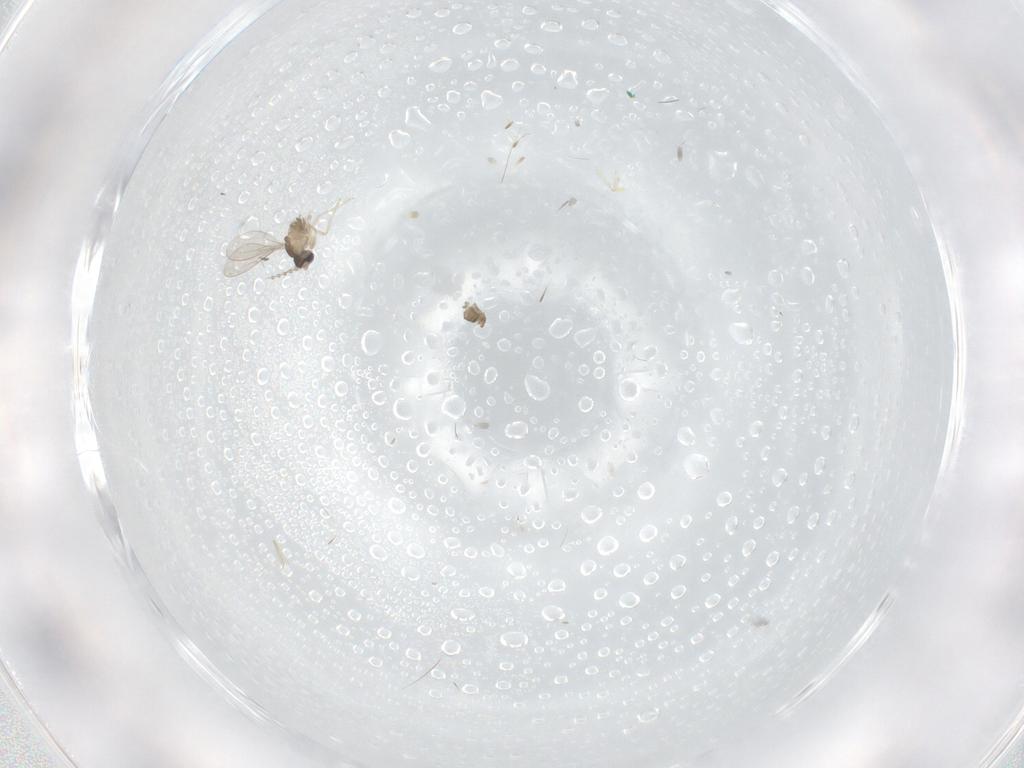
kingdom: Animalia
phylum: Arthropoda
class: Insecta
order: Diptera
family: Cecidomyiidae
